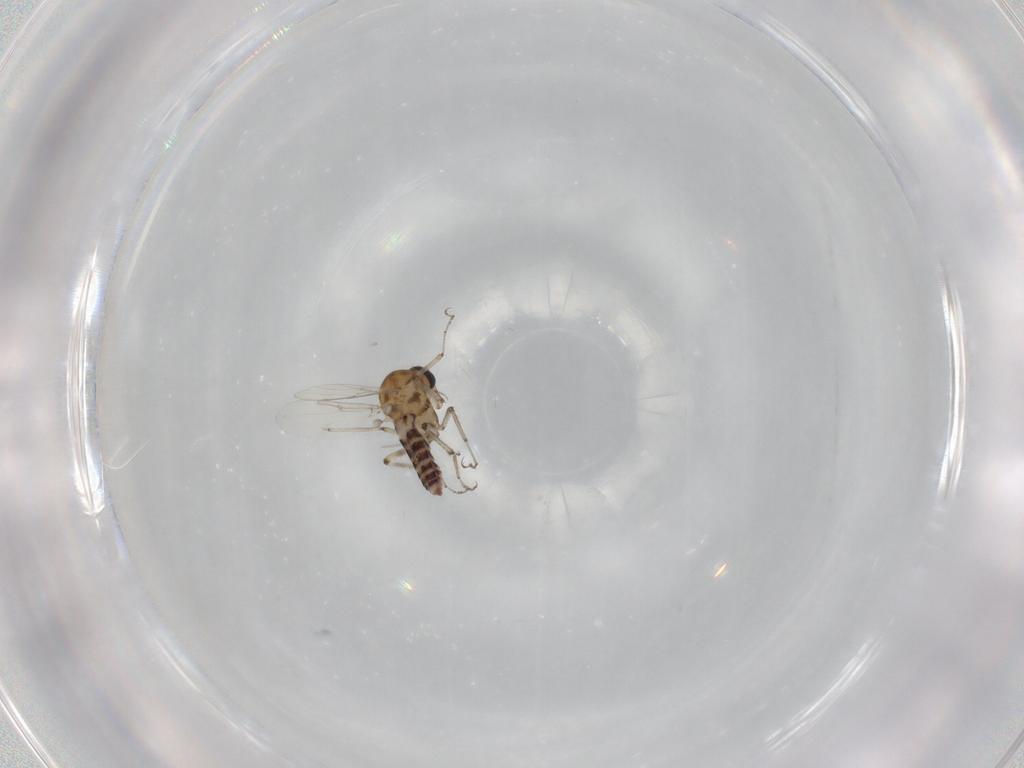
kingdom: Animalia
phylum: Arthropoda
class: Insecta
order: Diptera
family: Ceratopogonidae
